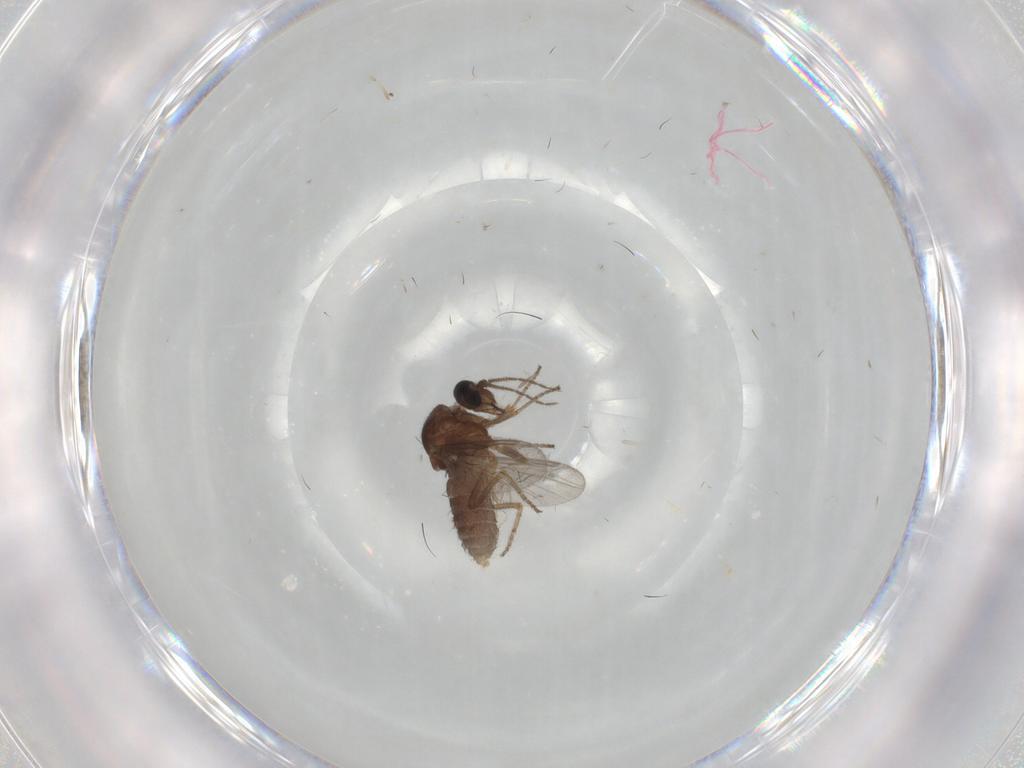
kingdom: Animalia
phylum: Arthropoda
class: Insecta
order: Diptera
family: Ceratopogonidae
